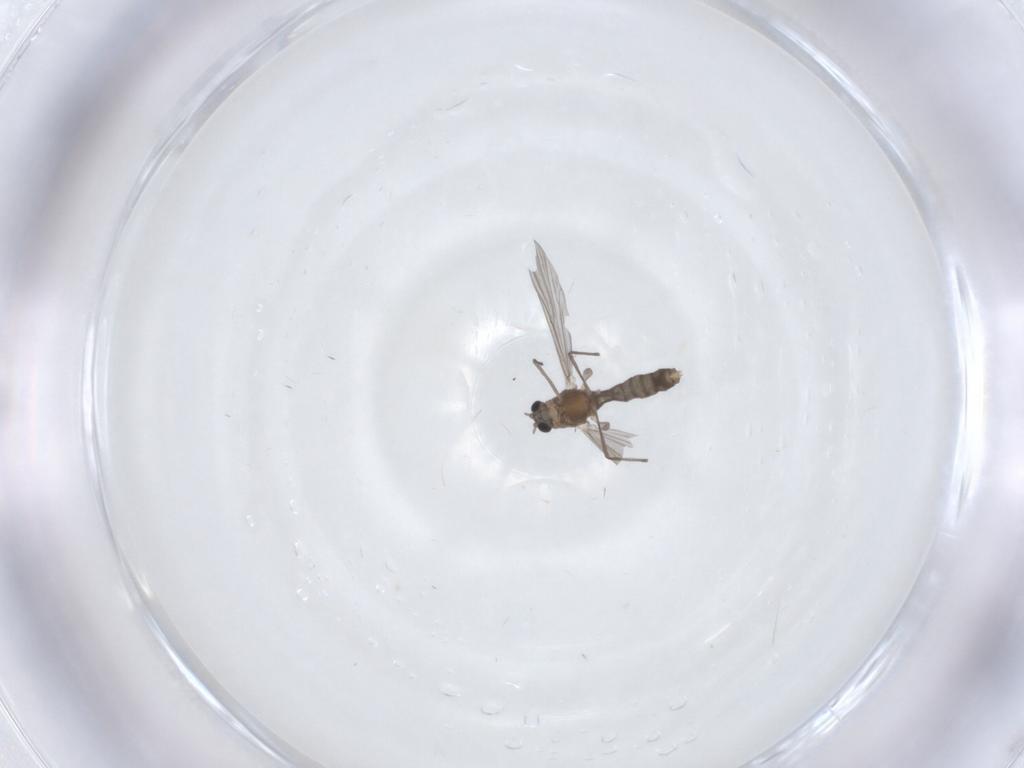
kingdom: Animalia
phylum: Arthropoda
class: Insecta
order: Diptera
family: Chironomidae
